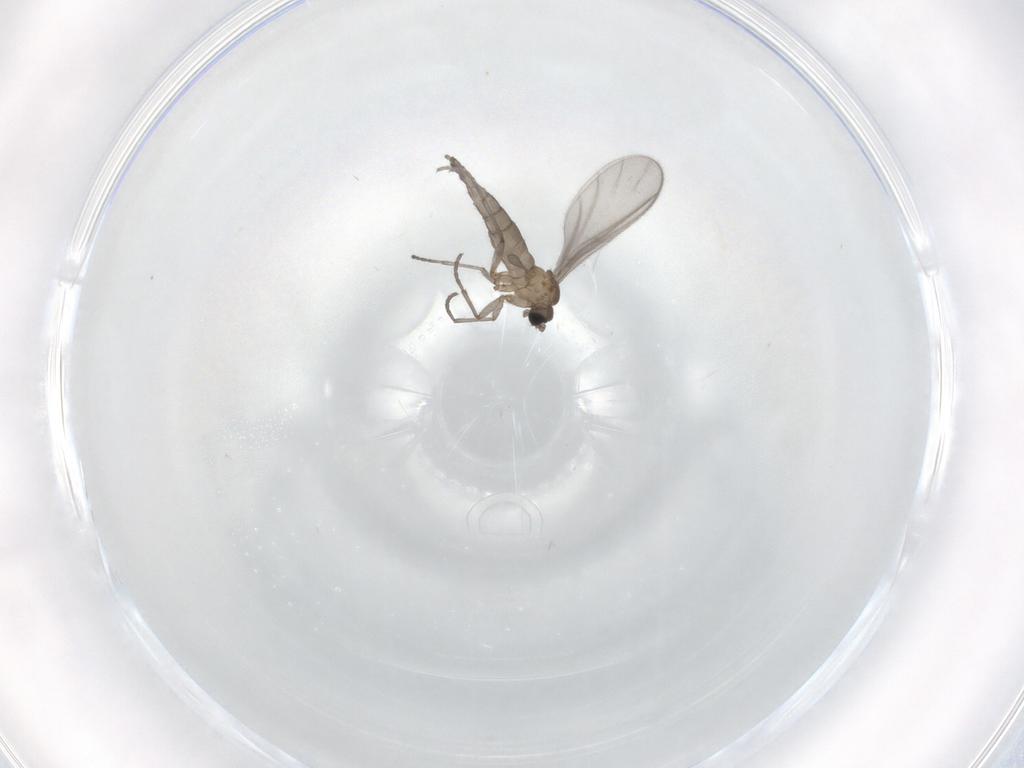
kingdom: Animalia
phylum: Arthropoda
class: Insecta
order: Diptera
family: Sciaridae
